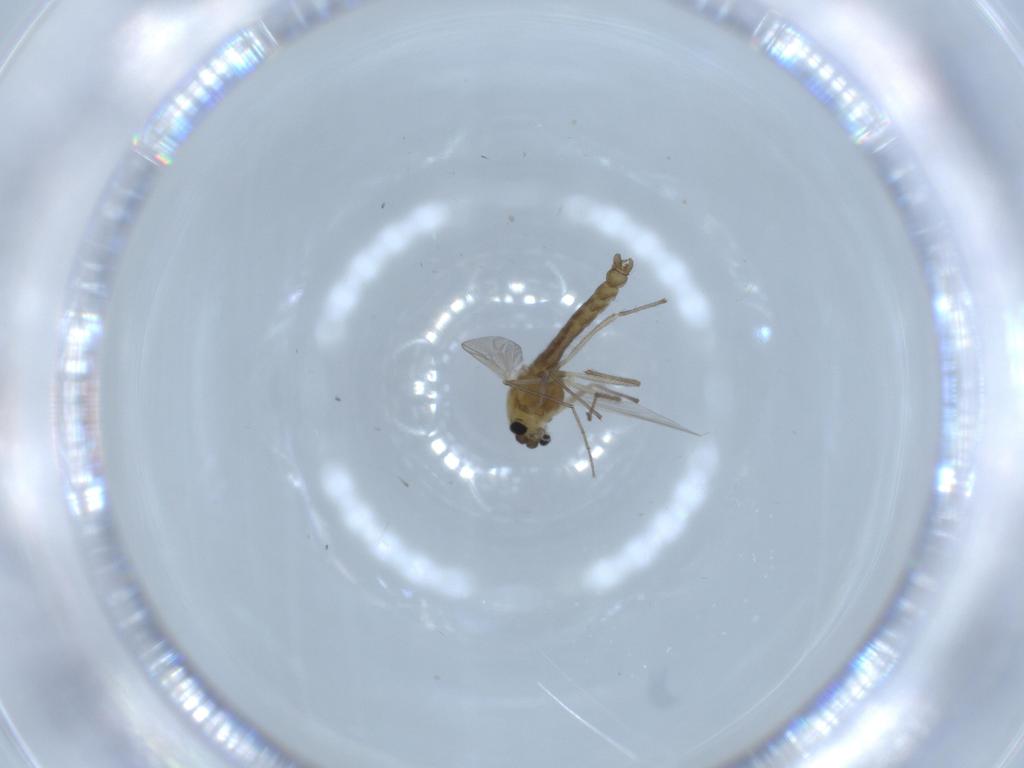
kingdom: Animalia
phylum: Arthropoda
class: Insecta
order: Diptera
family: Chironomidae
